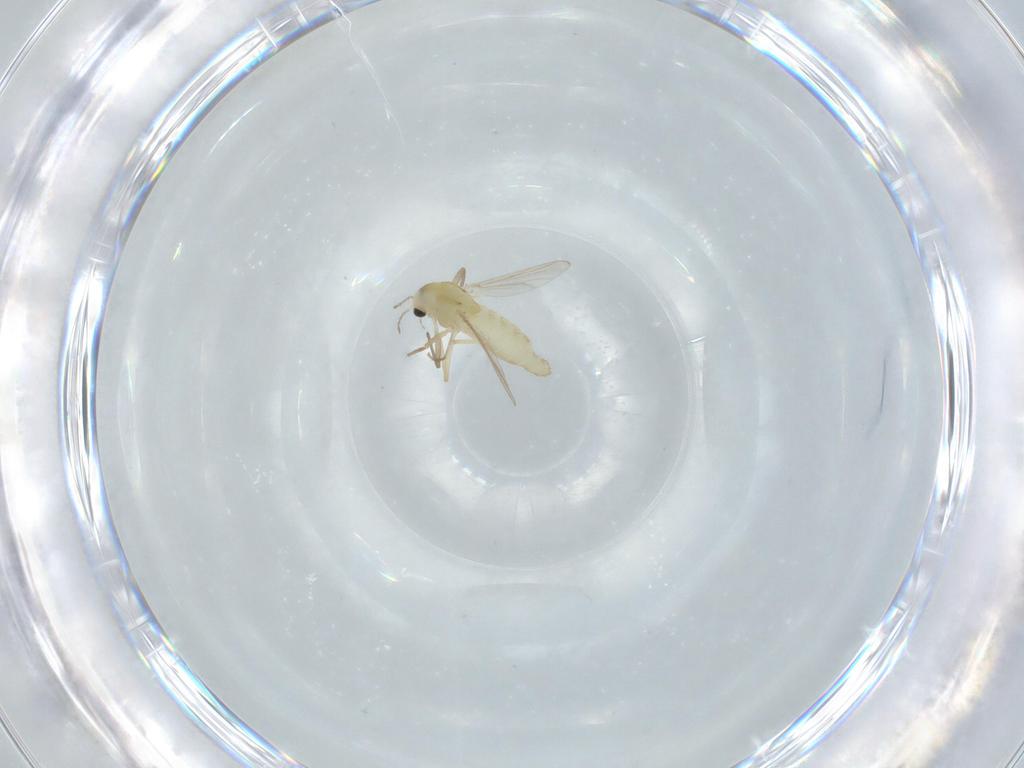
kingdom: Animalia
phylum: Arthropoda
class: Insecta
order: Diptera
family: Chironomidae
